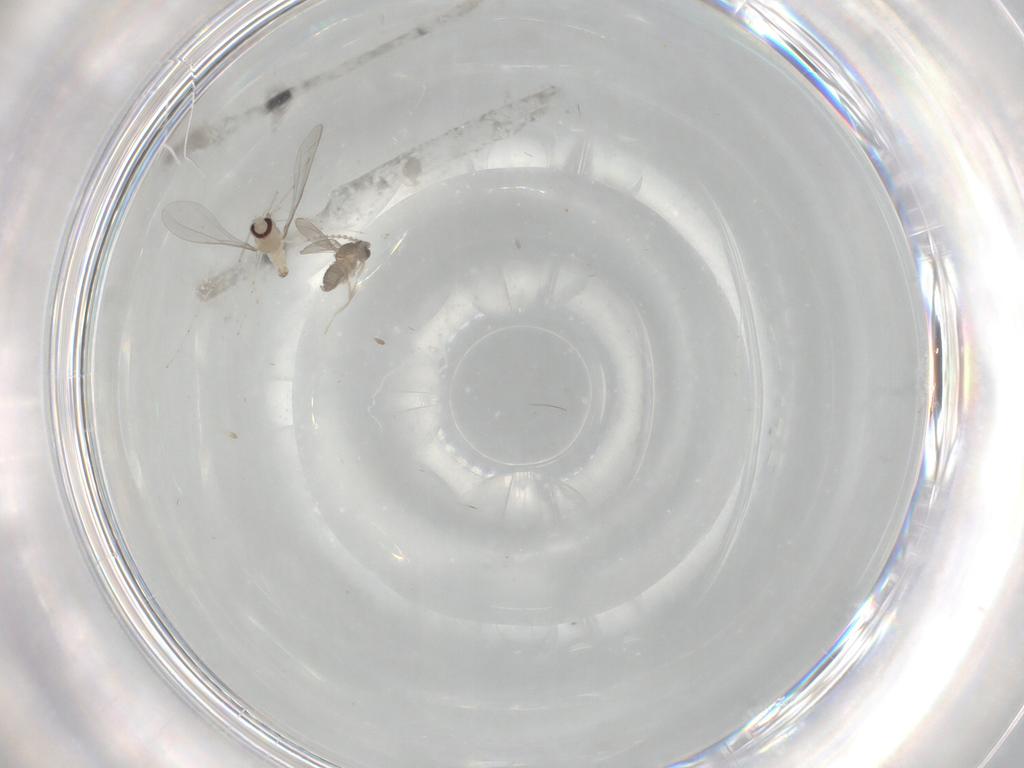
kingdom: Animalia
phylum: Arthropoda
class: Insecta
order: Diptera
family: Cecidomyiidae
